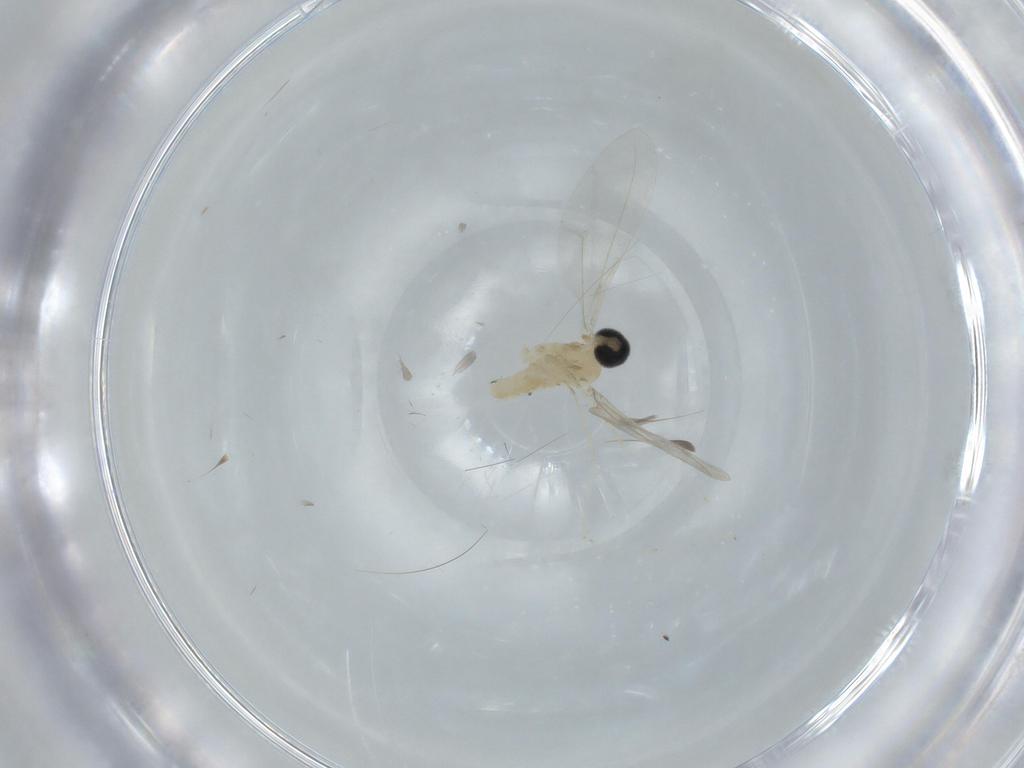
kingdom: Animalia
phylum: Arthropoda
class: Insecta
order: Diptera
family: Cecidomyiidae
